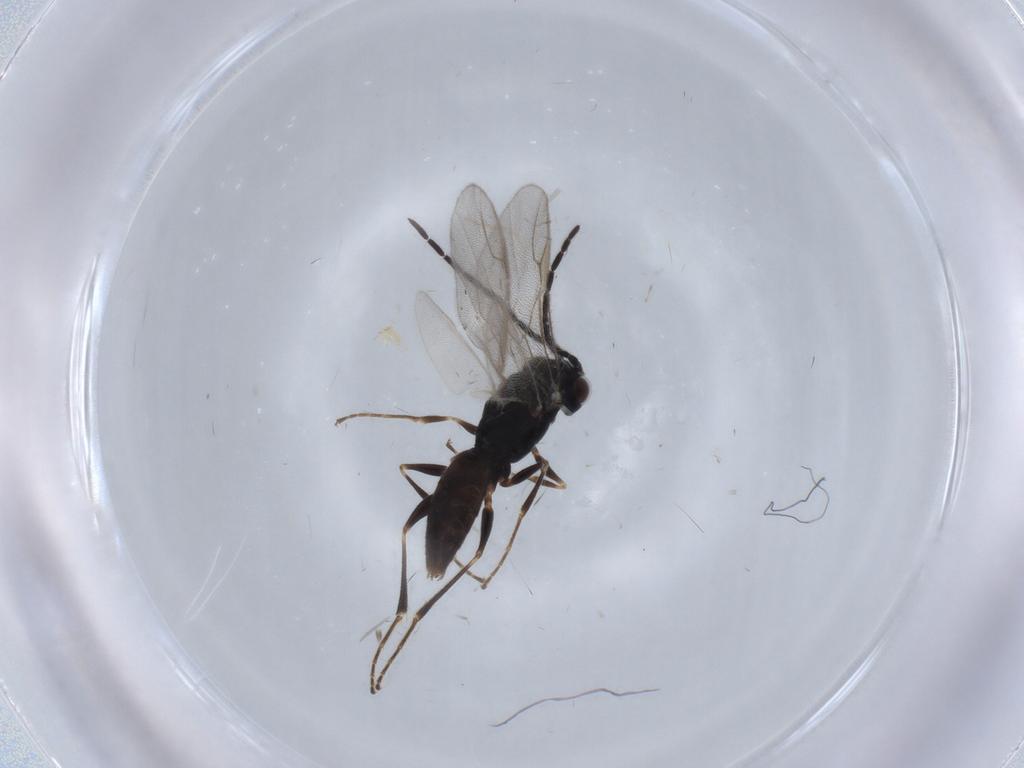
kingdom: Animalia
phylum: Arthropoda
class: Insecta
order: Hymenoptera
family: Dryinidae
